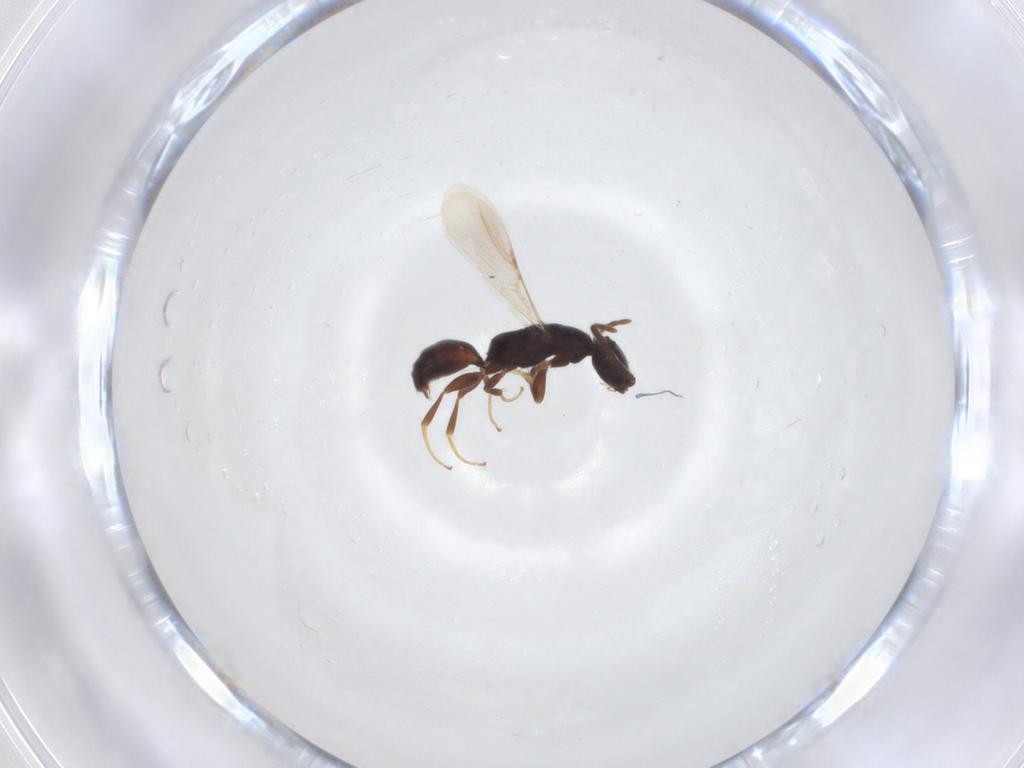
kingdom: Animalia
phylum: Arthropoda
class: Insecta
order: Hymenoptera
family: Bethylidae
